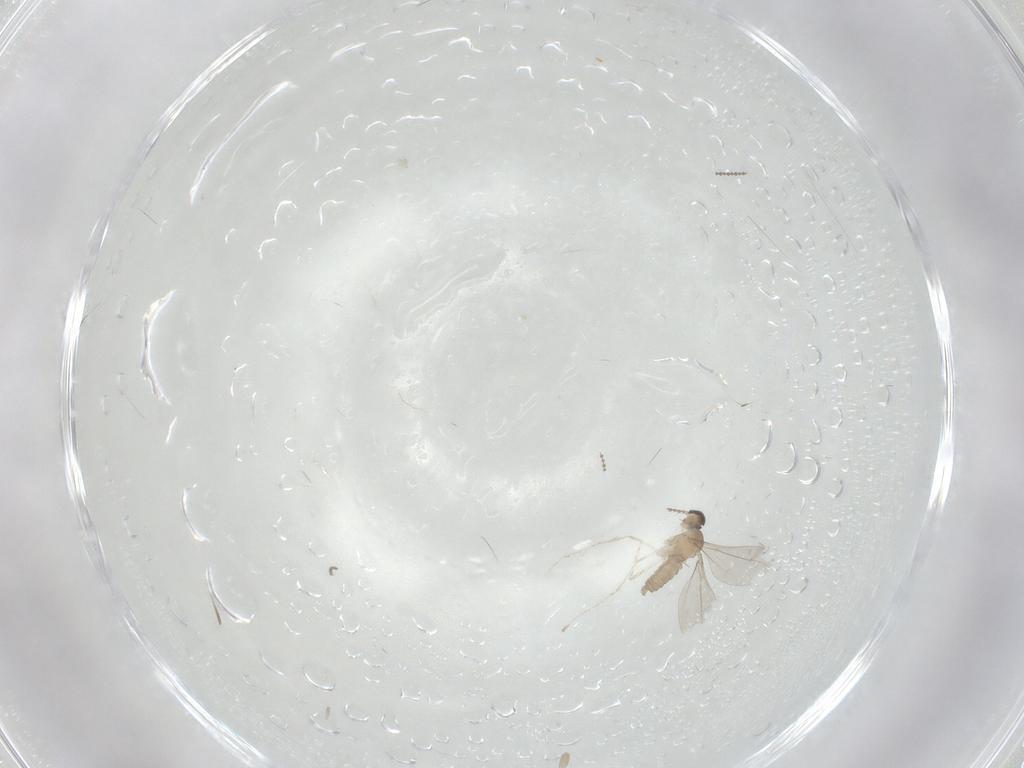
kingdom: Animalia
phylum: Arthropoda
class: Insecta
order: Diptera
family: Cecidomyiidae
